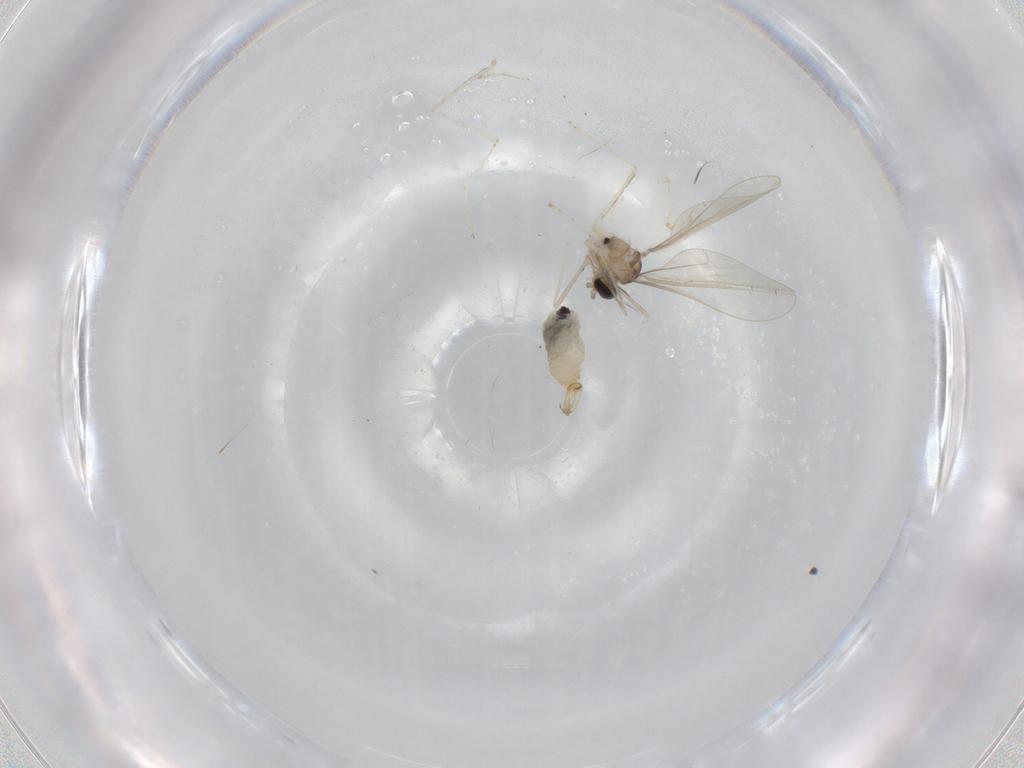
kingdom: Animalia
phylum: Arthropoda
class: Insecta
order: Diptera
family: Cecidomyiidae
